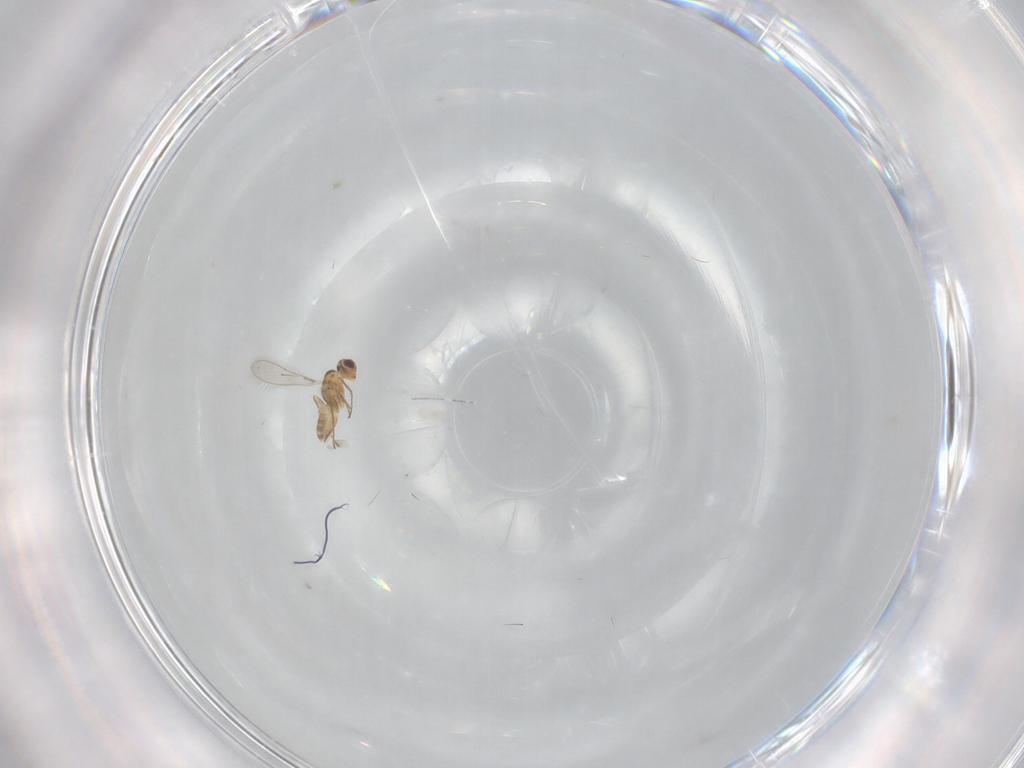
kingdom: Animalia
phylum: Arthropoda
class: Insecta
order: Hymenoptera
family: Mymaridae
